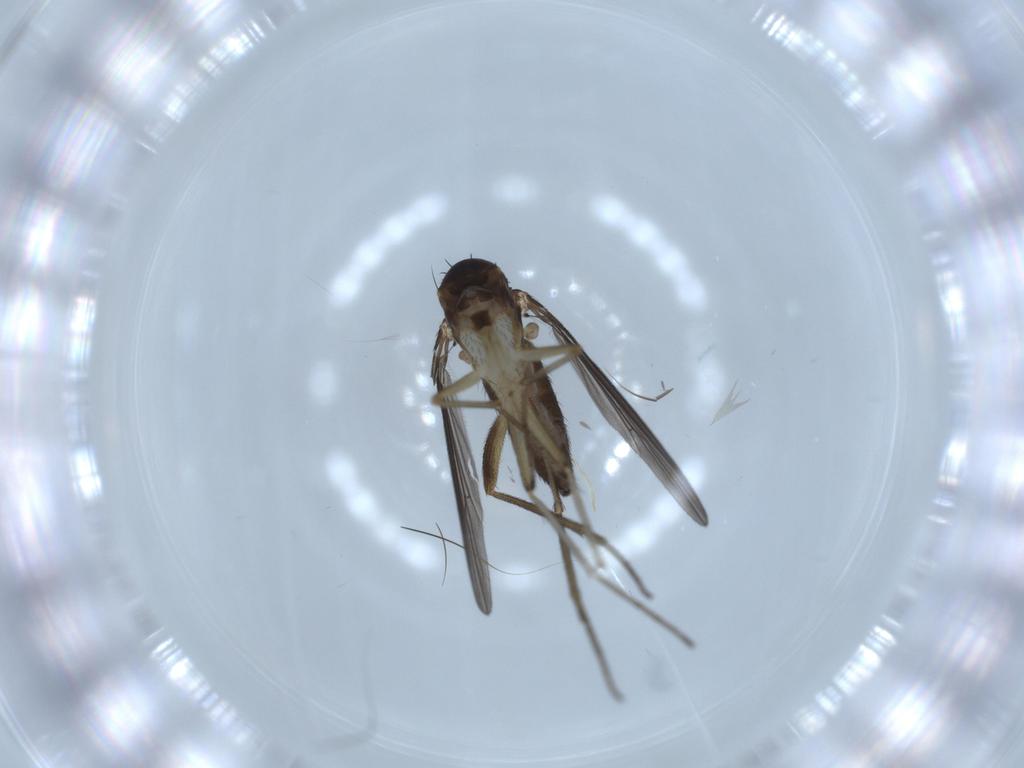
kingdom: Animalia
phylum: Arthropoda
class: Insecta
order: Diptera
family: Dolichopodidae
